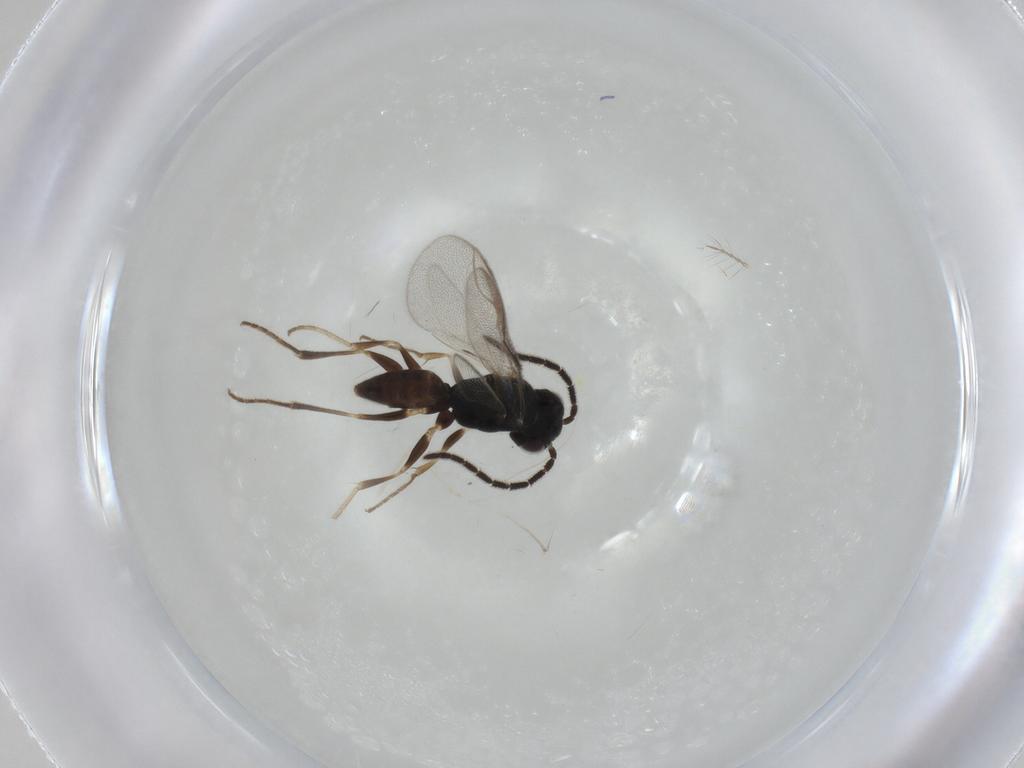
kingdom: Animalia
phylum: Arthropoda
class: Insecta
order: Hymenoptera
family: Dryinidae
